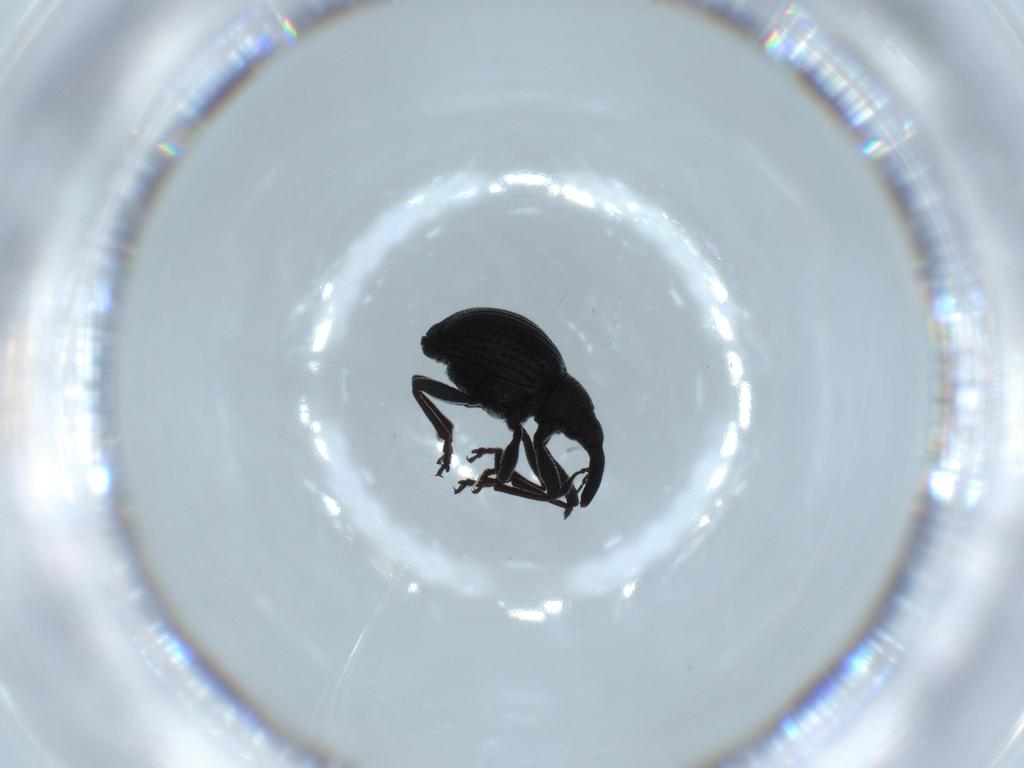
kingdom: Animalia
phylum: Arthropoda
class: Insecta
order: Coleoptera
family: Brentidae
